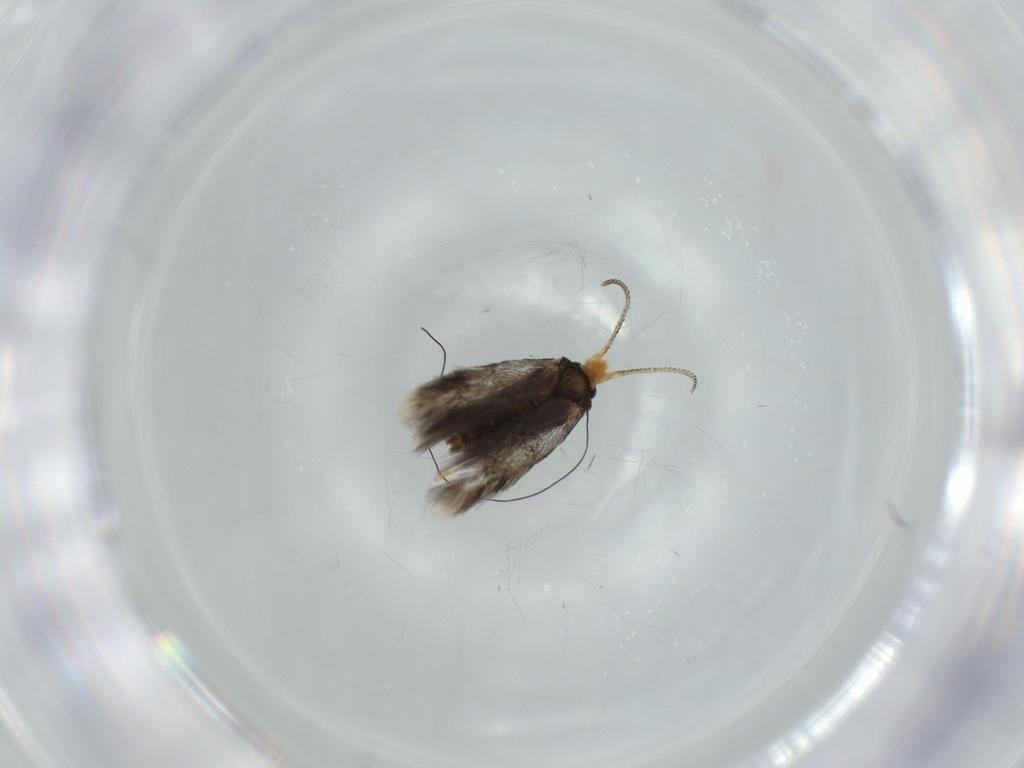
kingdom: Animalia
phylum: Arthropoda
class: Insecta
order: Lepidoptera
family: Nepticulidae
